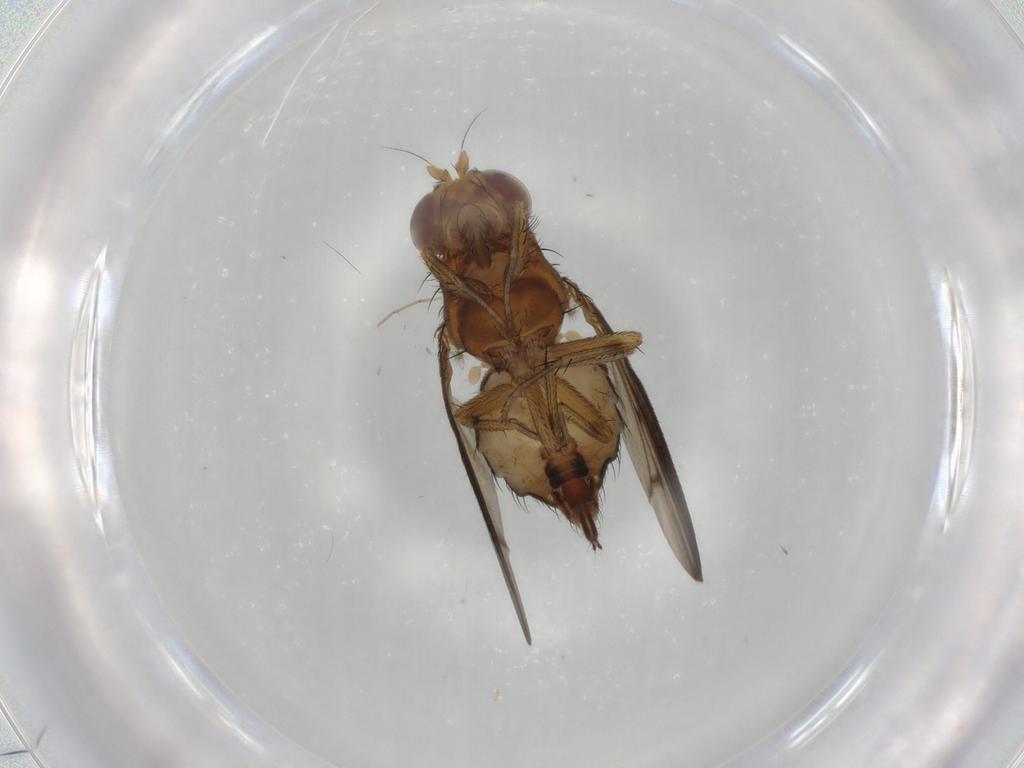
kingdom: Animalia
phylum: Arthropoda
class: Insecta
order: Diptera
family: Lauxaniidae
